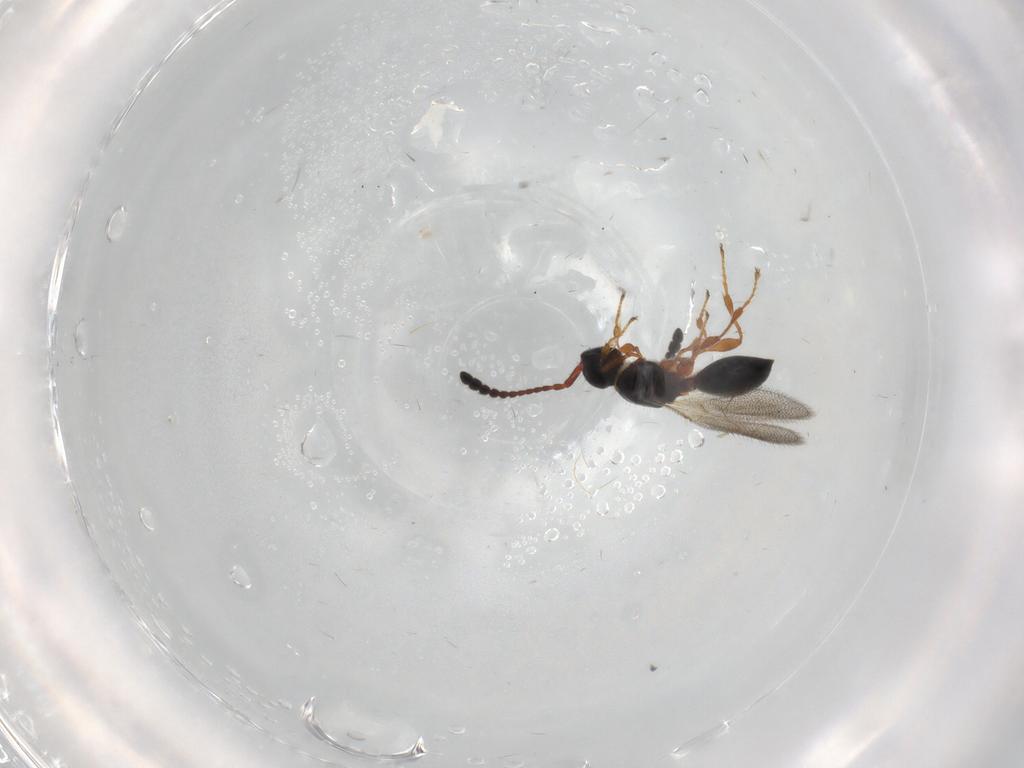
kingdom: Animalia
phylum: Arthropoda
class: Insecta
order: Hymenoptera
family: Diapriidae
